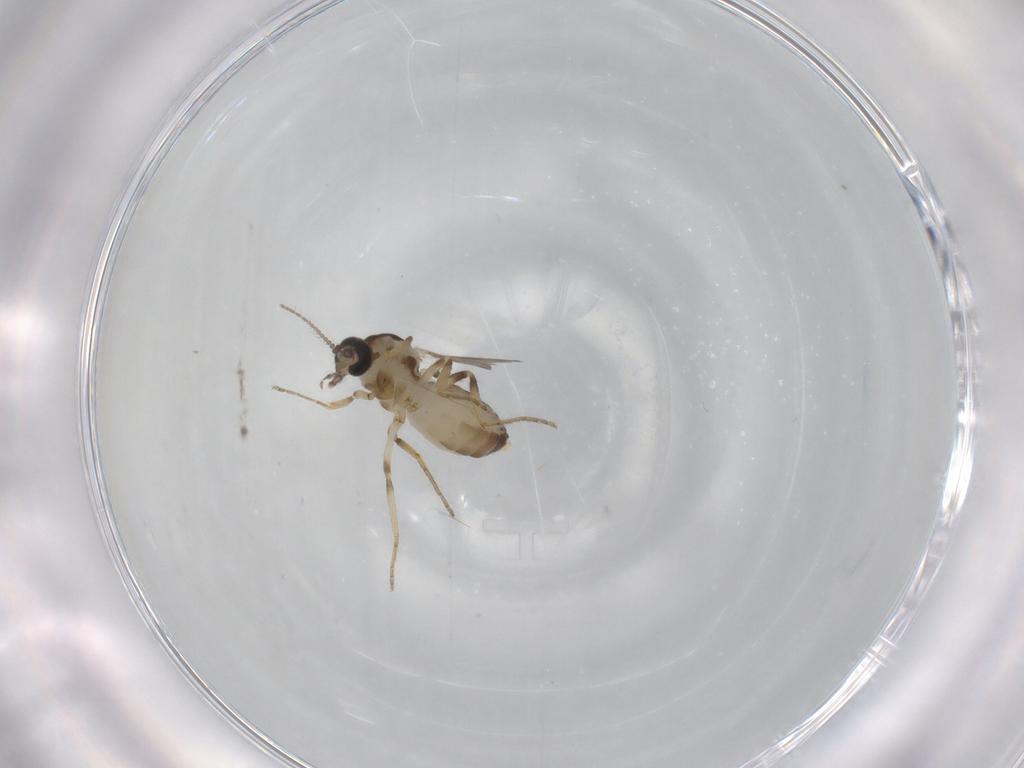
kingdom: Animalia
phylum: Arthropoda
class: Insecta
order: Diptera
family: Ceratopogonidae
